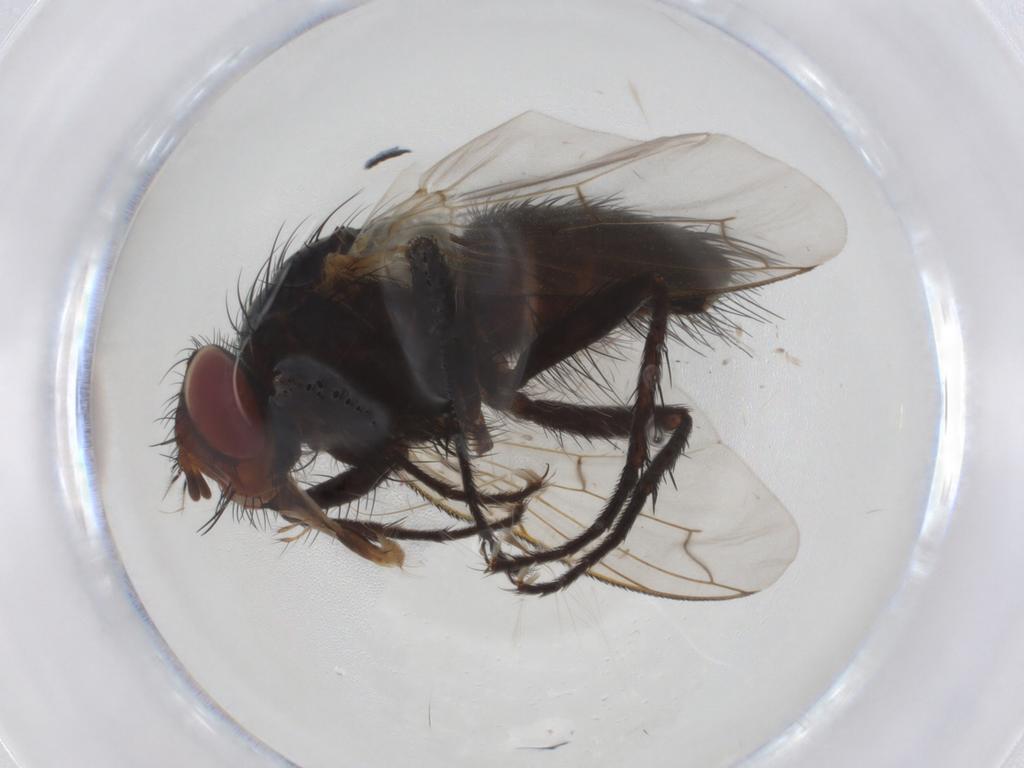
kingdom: Animalia
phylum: Arthropoda
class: Insecta
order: Diptera
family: Tachinidae
